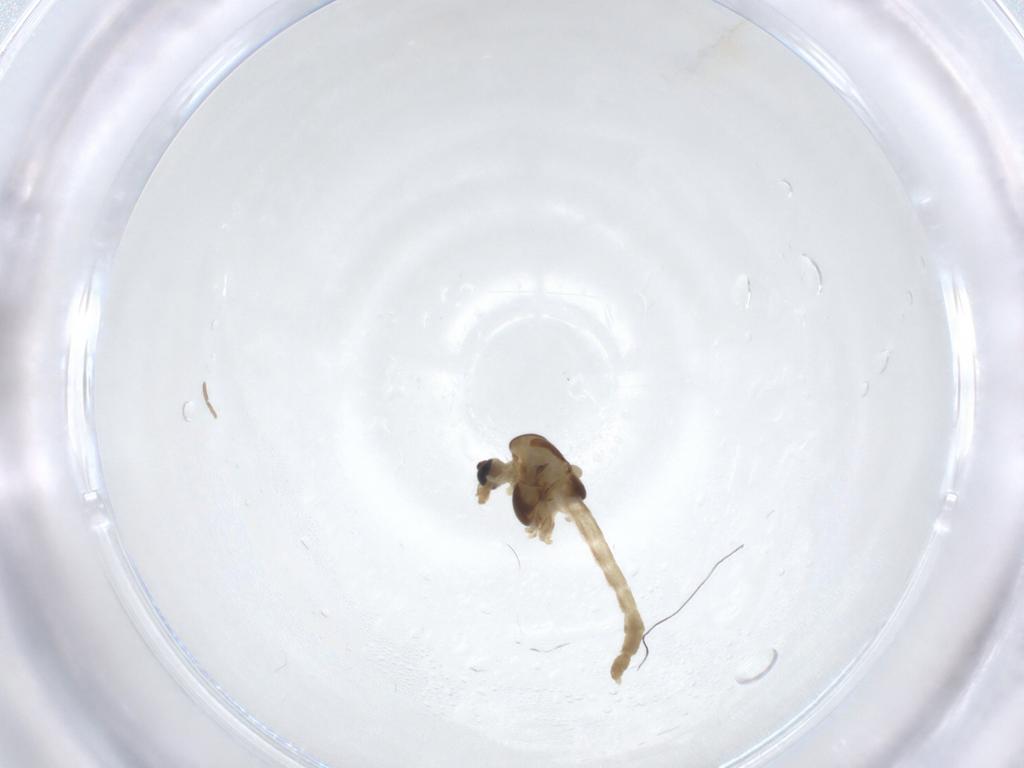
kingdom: Animalia
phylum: Arthropoda
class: Insecta
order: Diptera
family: Chironomidae
